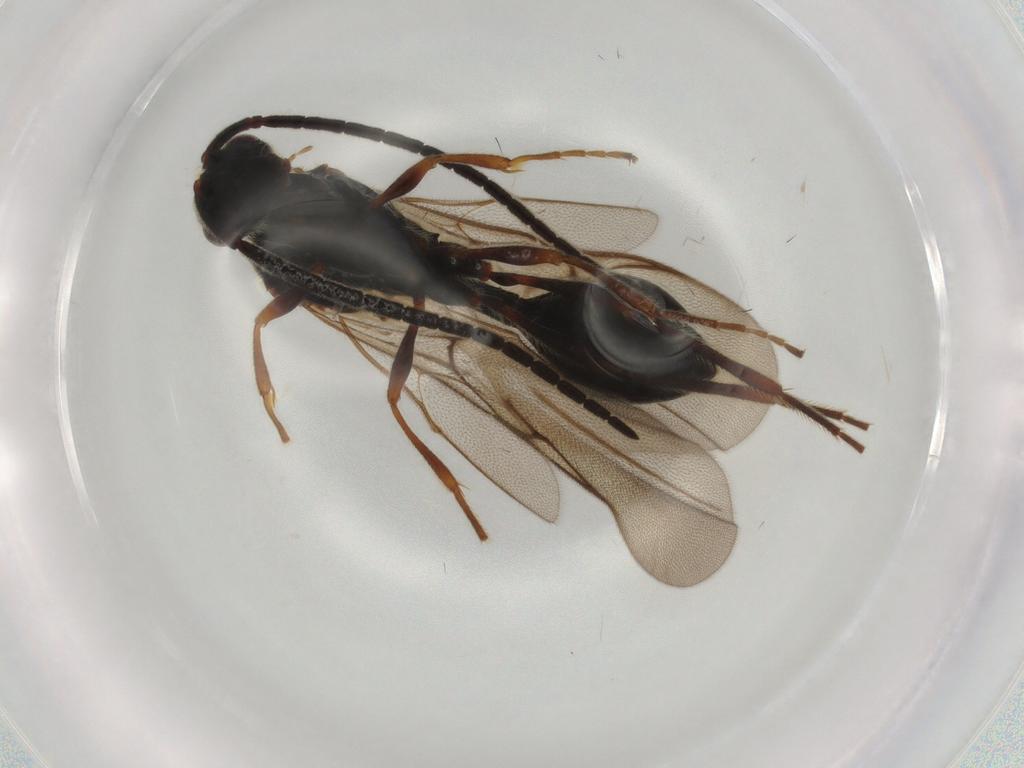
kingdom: Animalia
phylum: Arthropoda
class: Insecta
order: Hymenoptera
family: Vespidae
